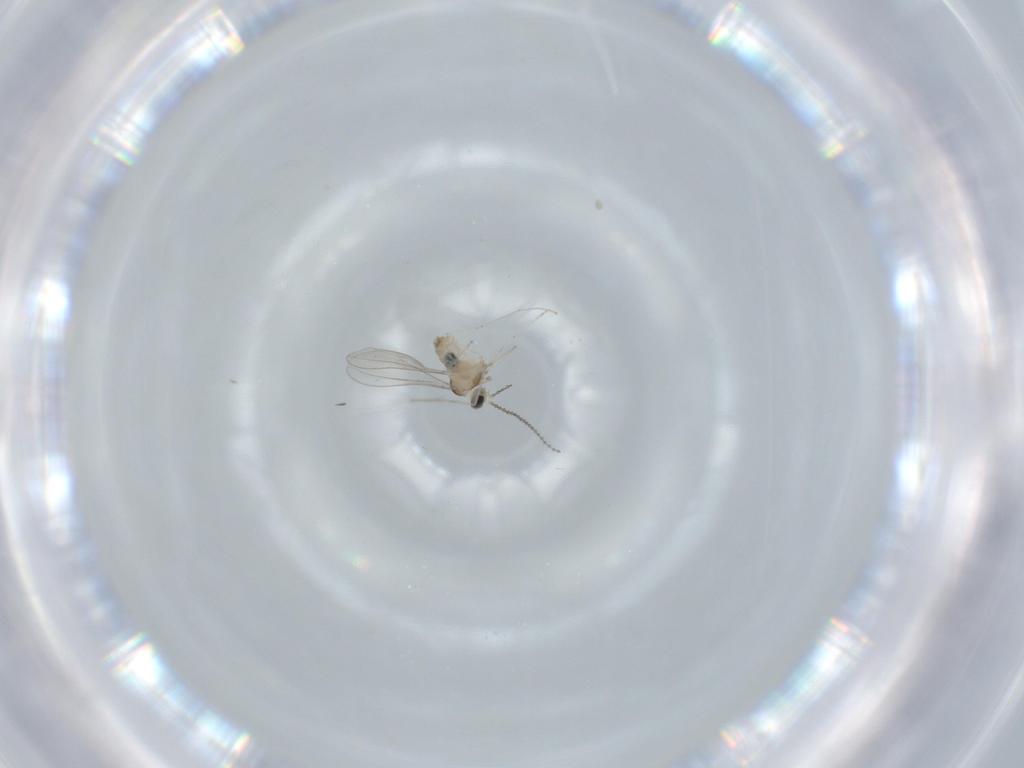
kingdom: Animalia
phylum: Arthropoda
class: Insecta
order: Diptera
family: Cecidomyiidae
